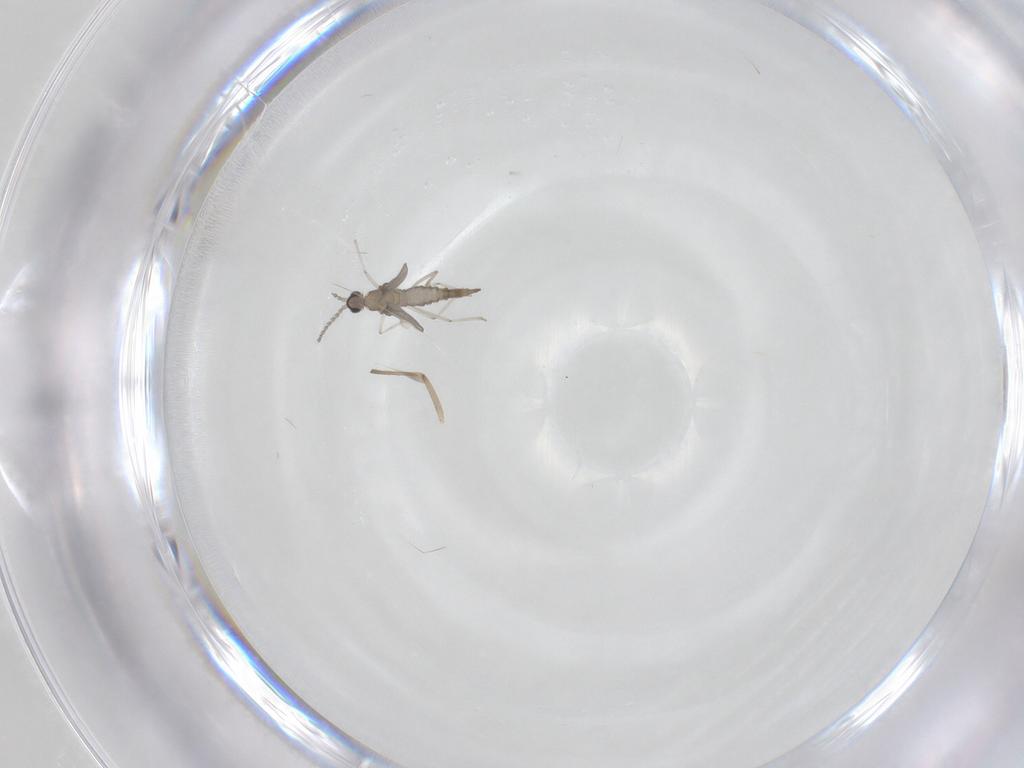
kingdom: Animalia
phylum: Arthropoda
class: Insecta
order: Diptera
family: Chironomidae
